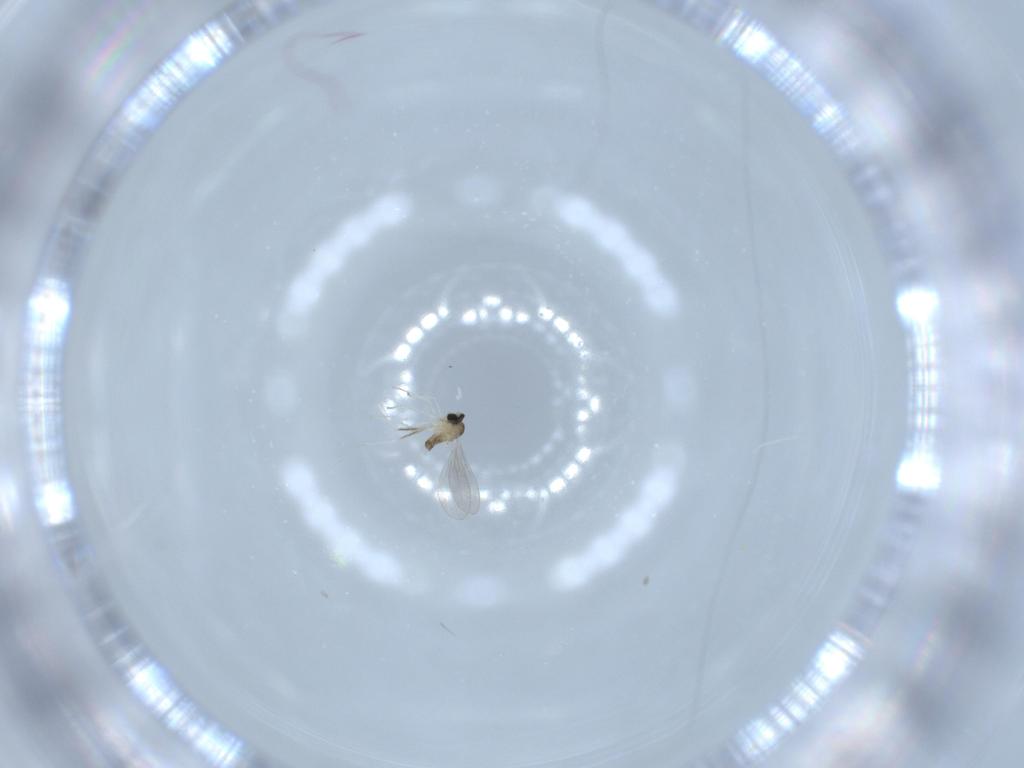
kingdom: Animalia
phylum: Arthropoda
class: Insecta
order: Diptera
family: Cecidomyiidae
